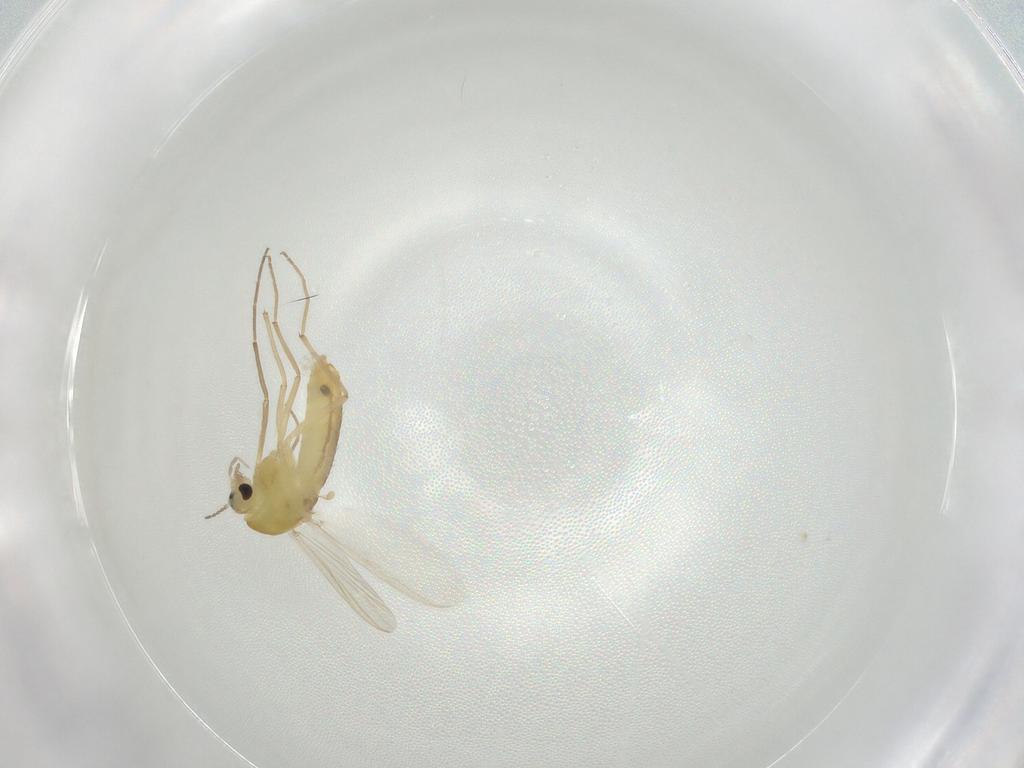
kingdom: Animalia
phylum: Arthropoda
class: Insecta
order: Diptera
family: Chironomidae
